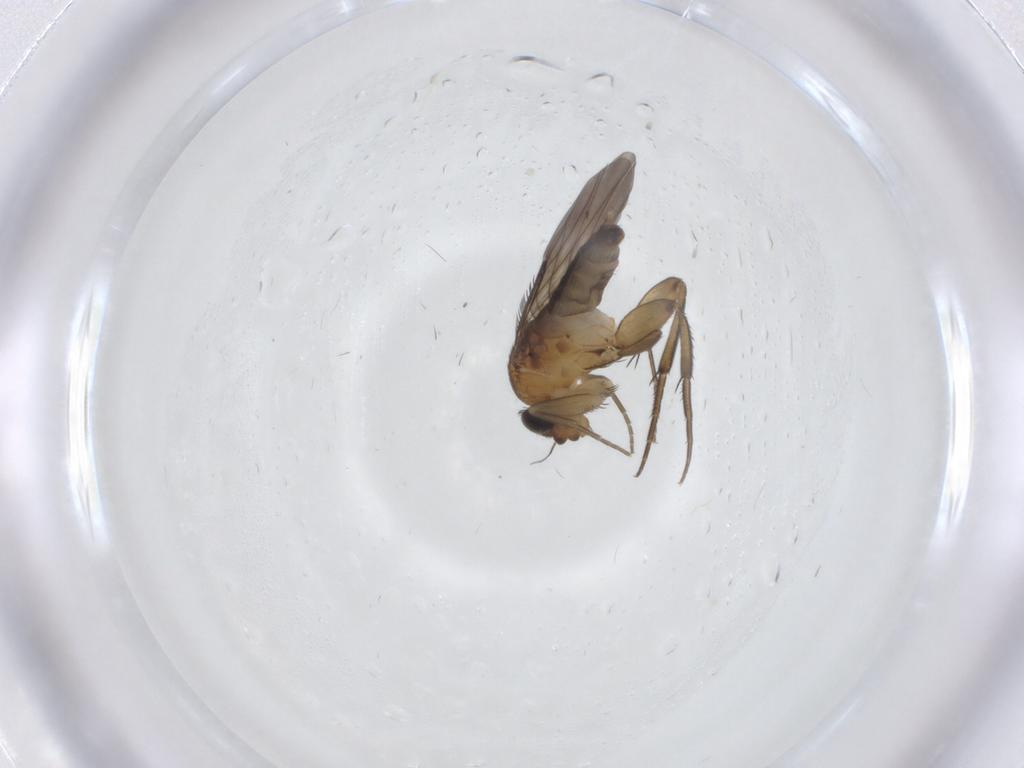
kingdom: Animalia
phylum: Arthropoda
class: Insecta
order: Diptera
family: Phoridae
